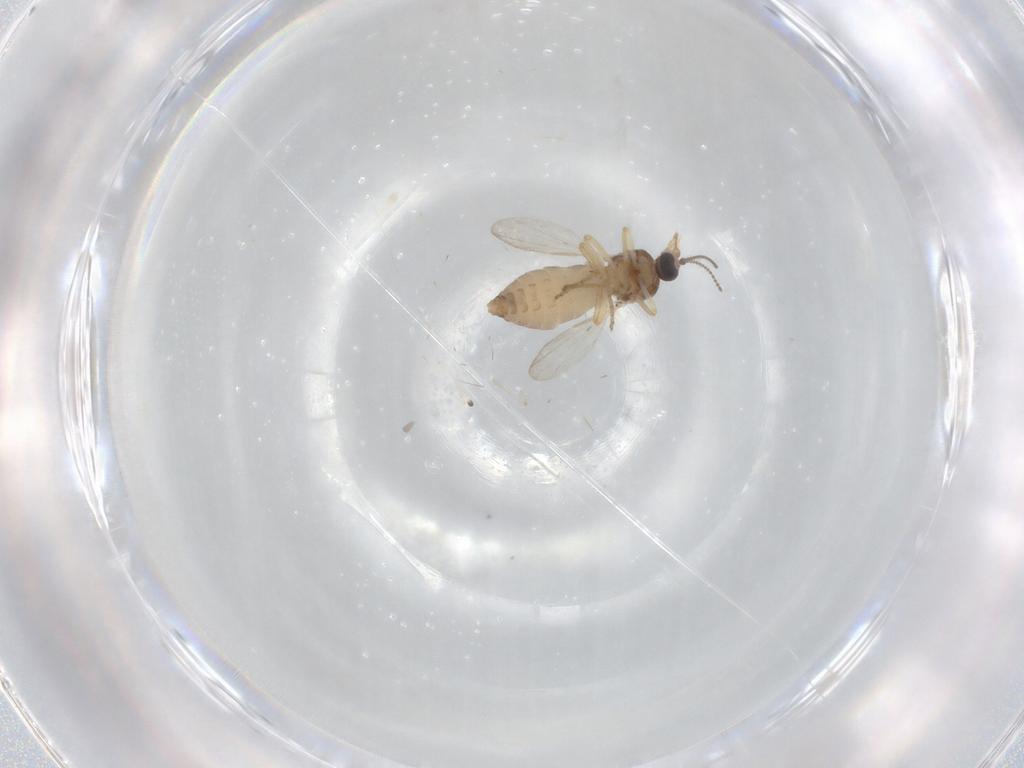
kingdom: Animalia
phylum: Arthropoda
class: Insecta
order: Diptera
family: Ceratopogonidae
